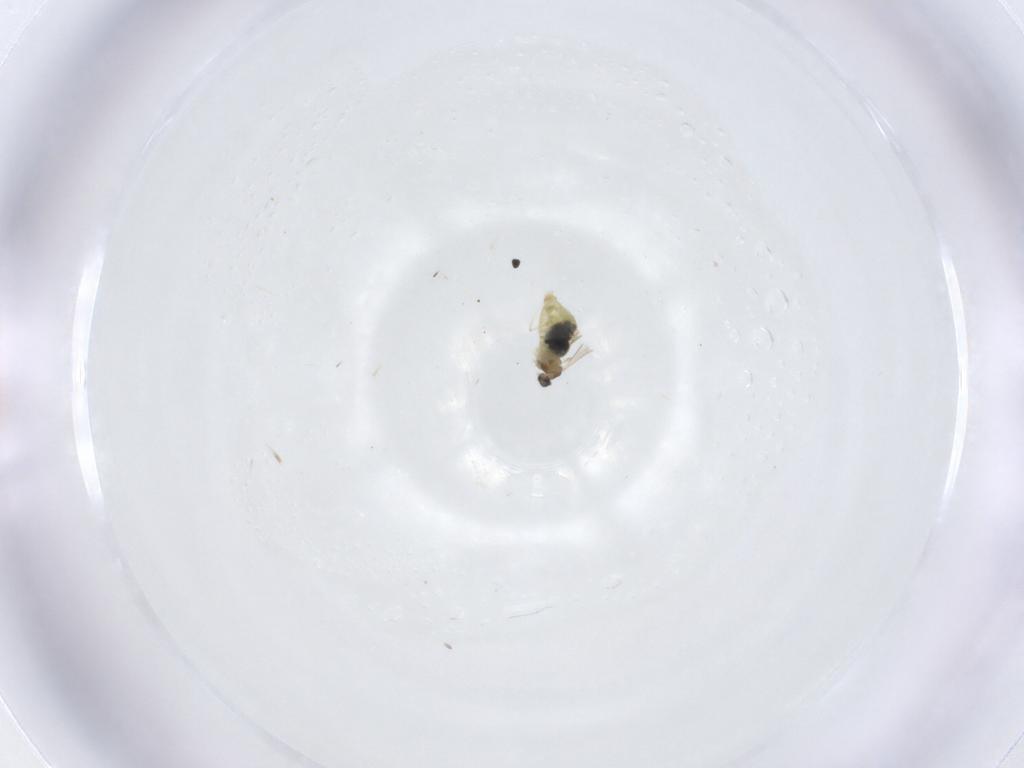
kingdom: Animalia
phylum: Arthropoda
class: Insecta
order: Diptera
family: Cecidomyiidae
